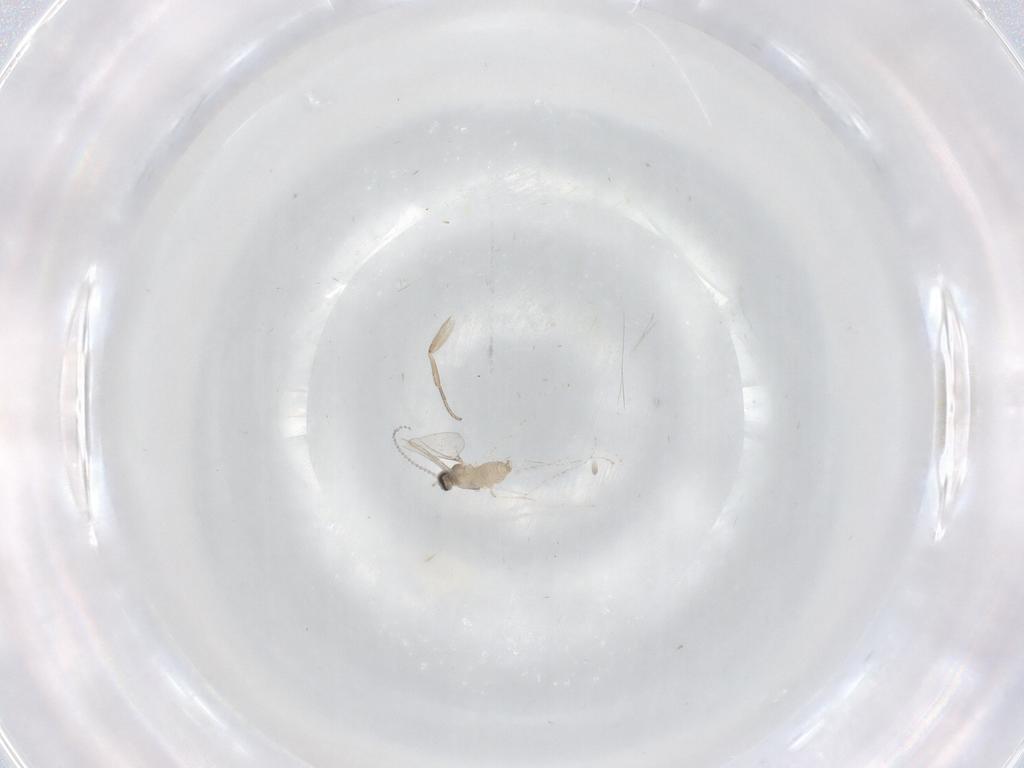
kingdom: Animalia
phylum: Arthropoda
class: Insecta
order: Diptera
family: Cecidomyiidae
